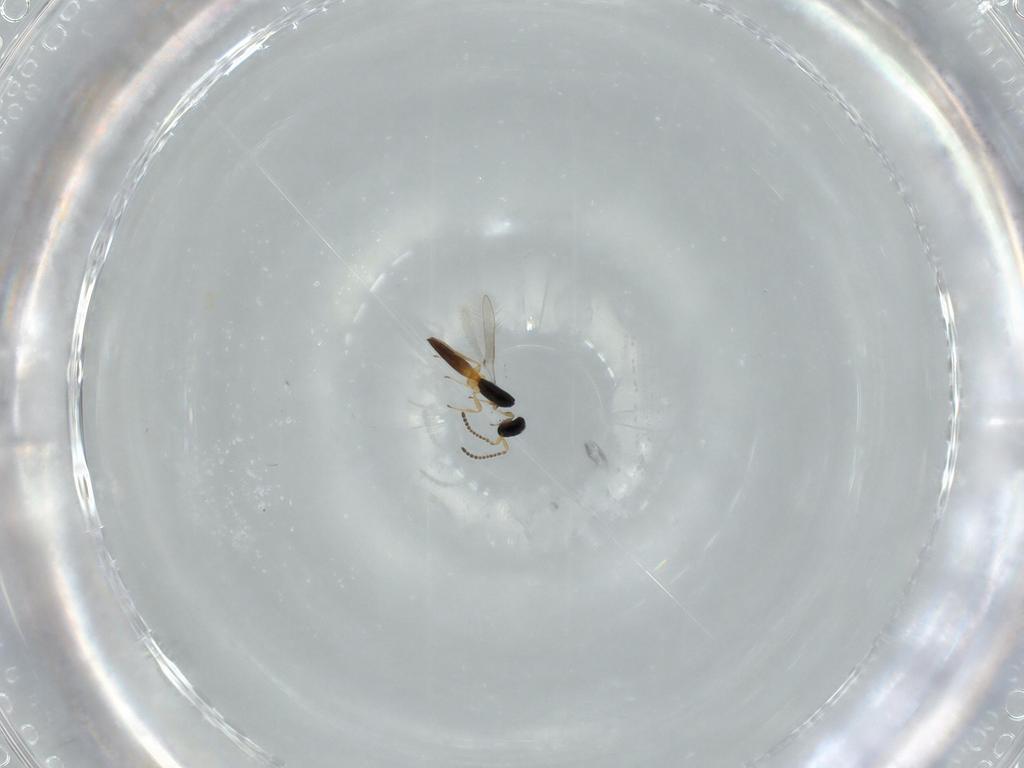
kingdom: Animalia
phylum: Arthropoda
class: Insecta
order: Hymenoptera
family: Scelionidae
